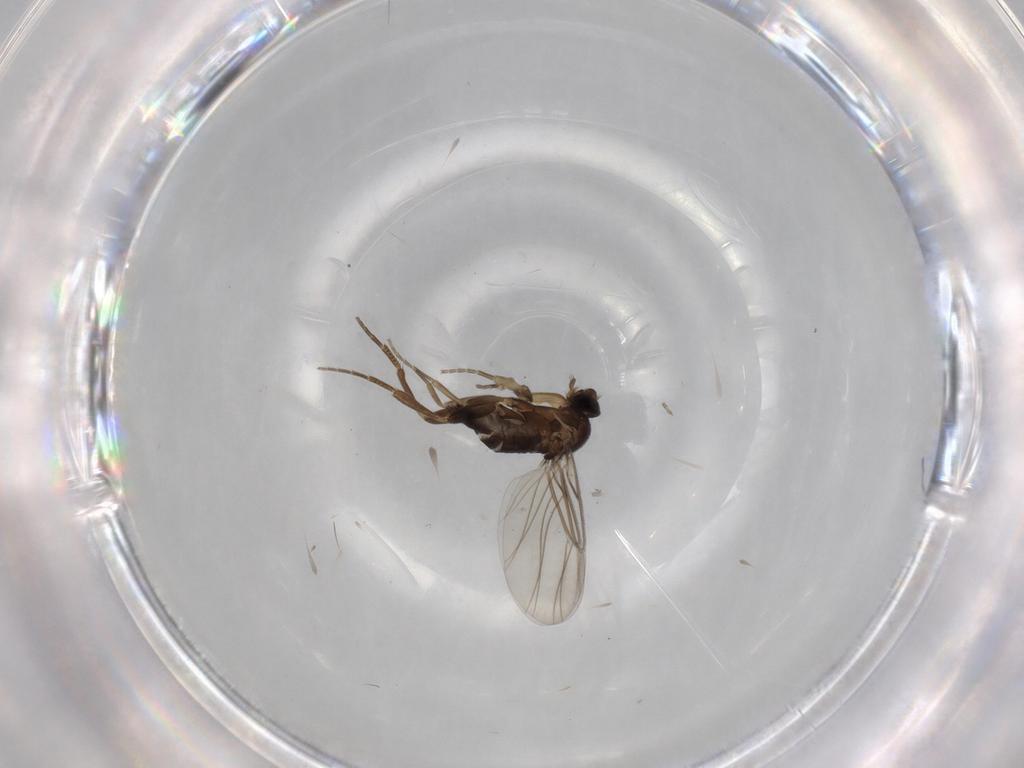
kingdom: Animalia
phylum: Arthropoda
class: Insecta
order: Diptera
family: Phoridae
